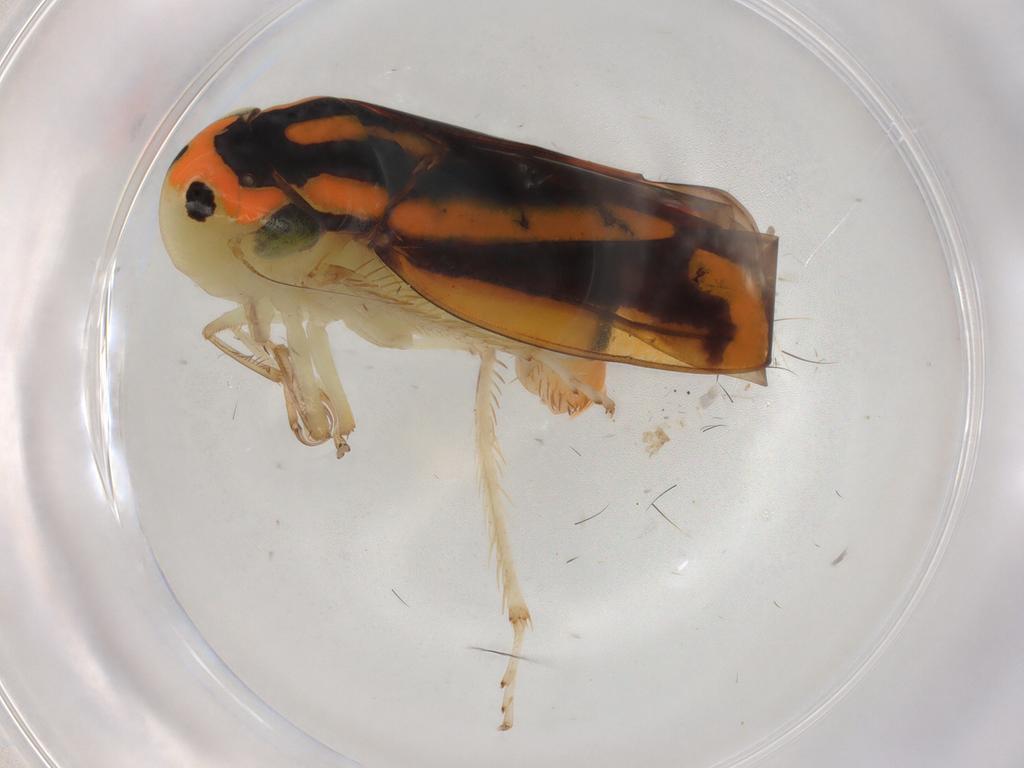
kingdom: Animalia
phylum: Arthropoda
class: Insecta
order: Hemiptera
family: Cicadellidae
